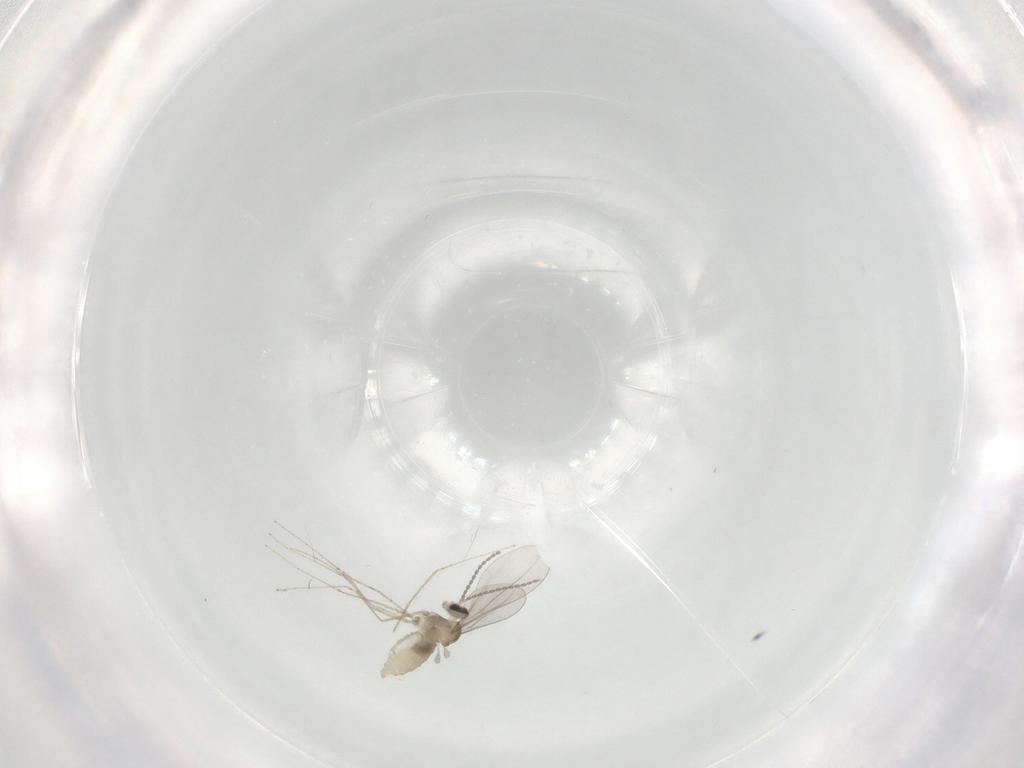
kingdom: Animalia
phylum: Arthropoda
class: Insecta
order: Diptera
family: Cecidomyiidae
